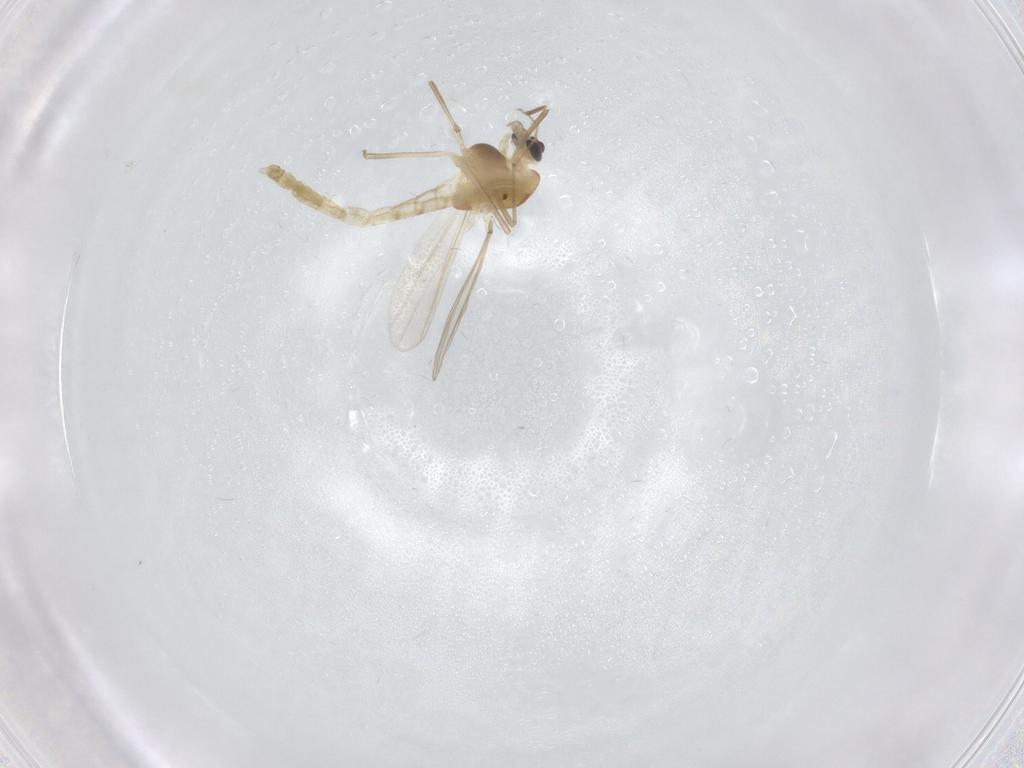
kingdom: Animalia
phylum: Arthropoda
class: Insecta
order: Diptera
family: Chironomidae
